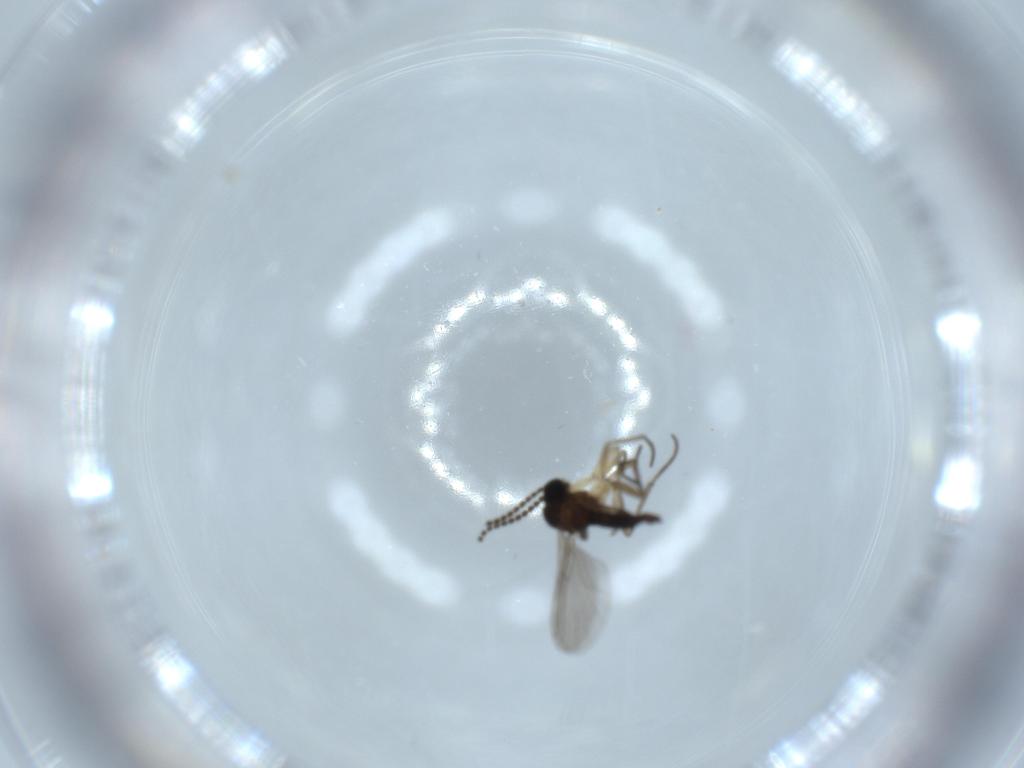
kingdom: Animalia
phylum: Arthropoda
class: Insecta
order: Diptera
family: Sciaridae
